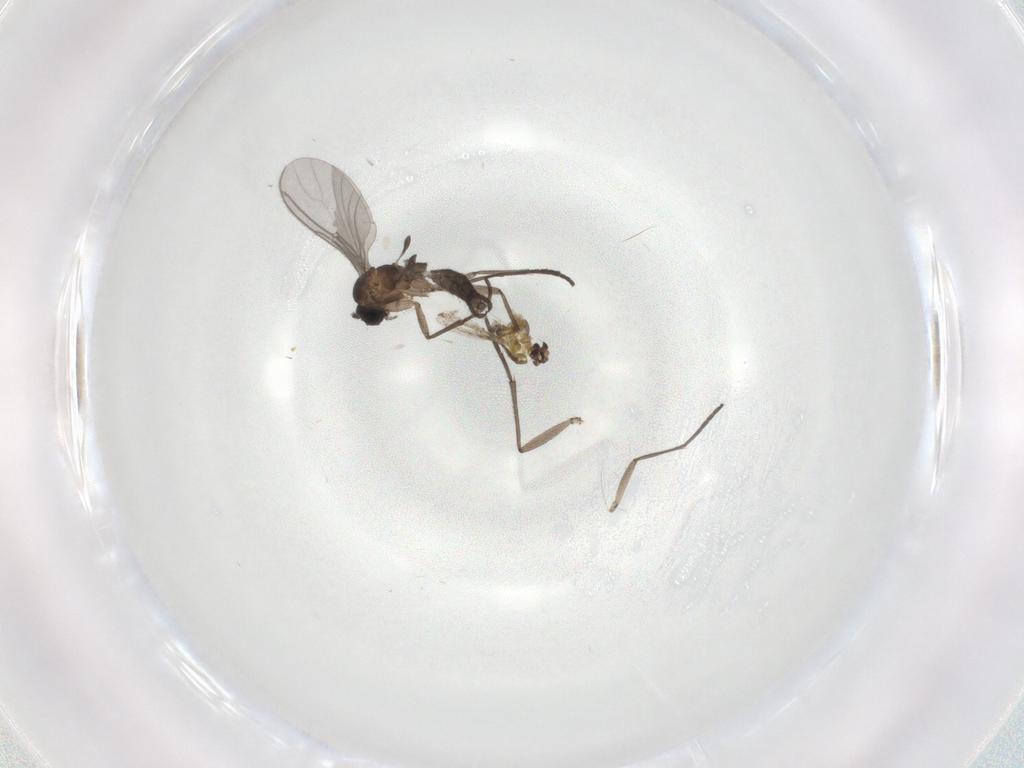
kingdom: Animalia
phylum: Arthropoda
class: Insecta
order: Diptera
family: Sciaridae
